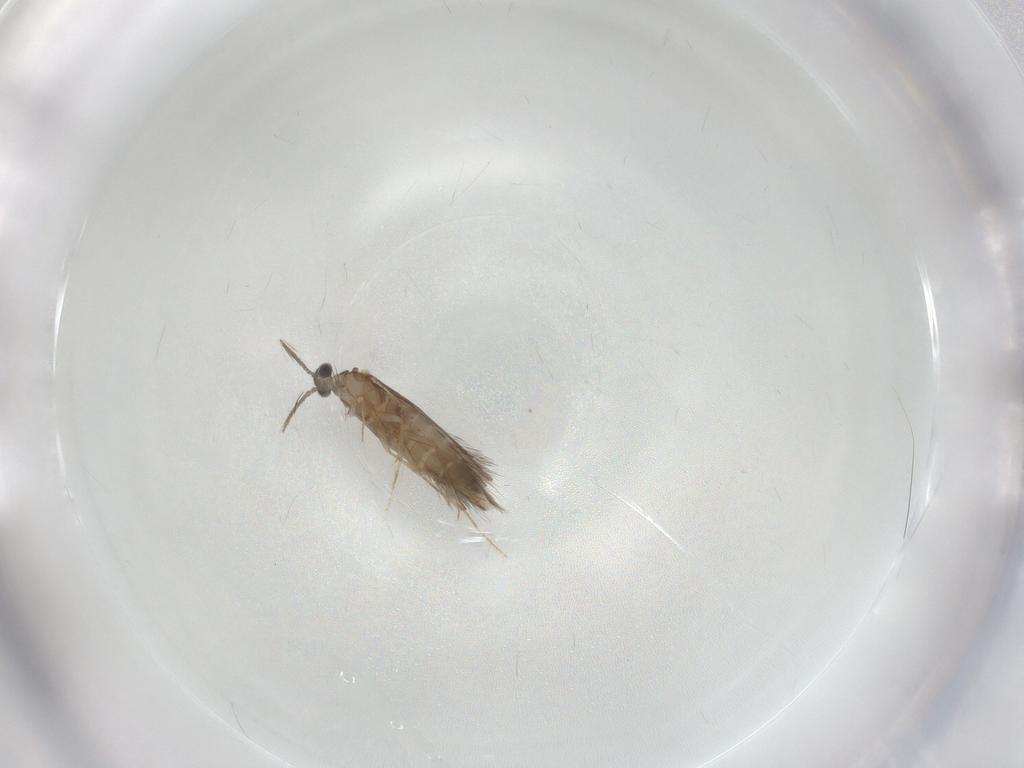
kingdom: Animalia
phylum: Arthropoda
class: Insecta
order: Trichoptera
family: Hydroptilidae
